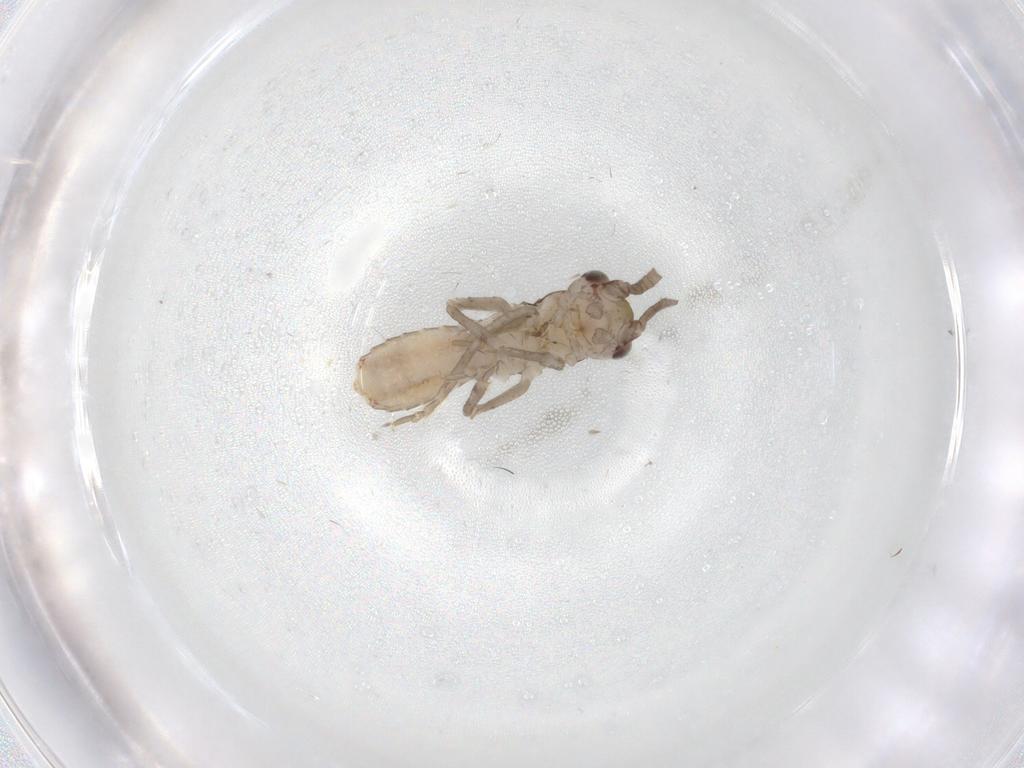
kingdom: Animalia
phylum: Arthropoda
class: Insecta
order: Orthoptera
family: Gryllidae
